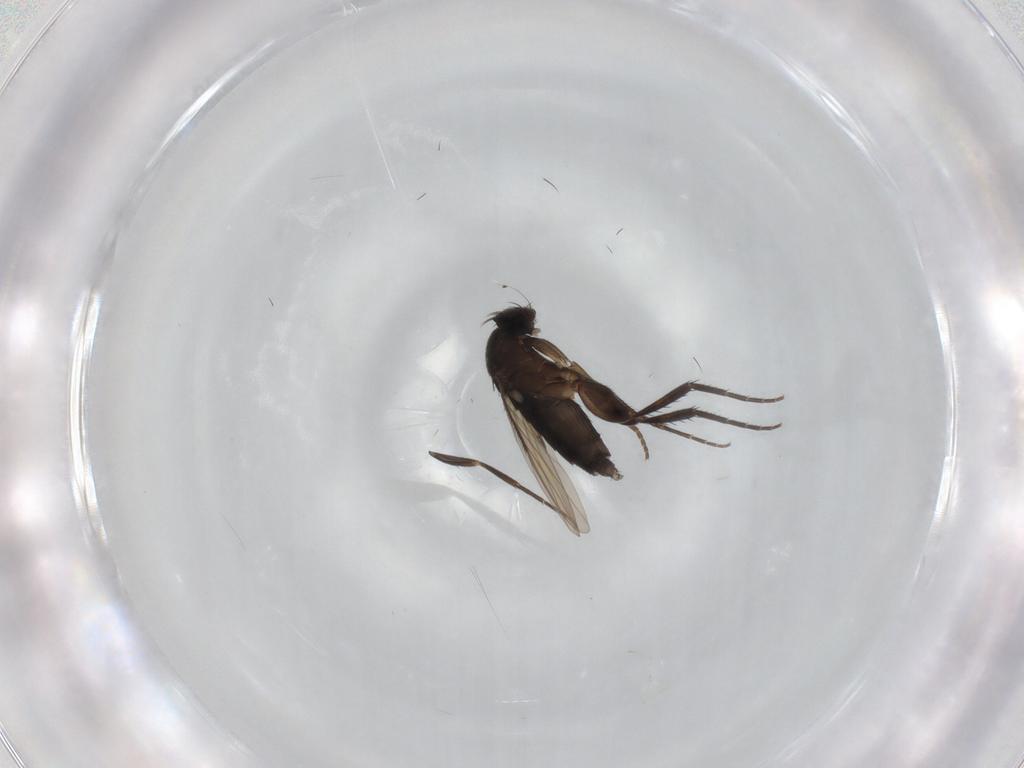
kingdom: Animalia
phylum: Arthropoda
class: Insecta
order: Diptera
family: Phoridae
